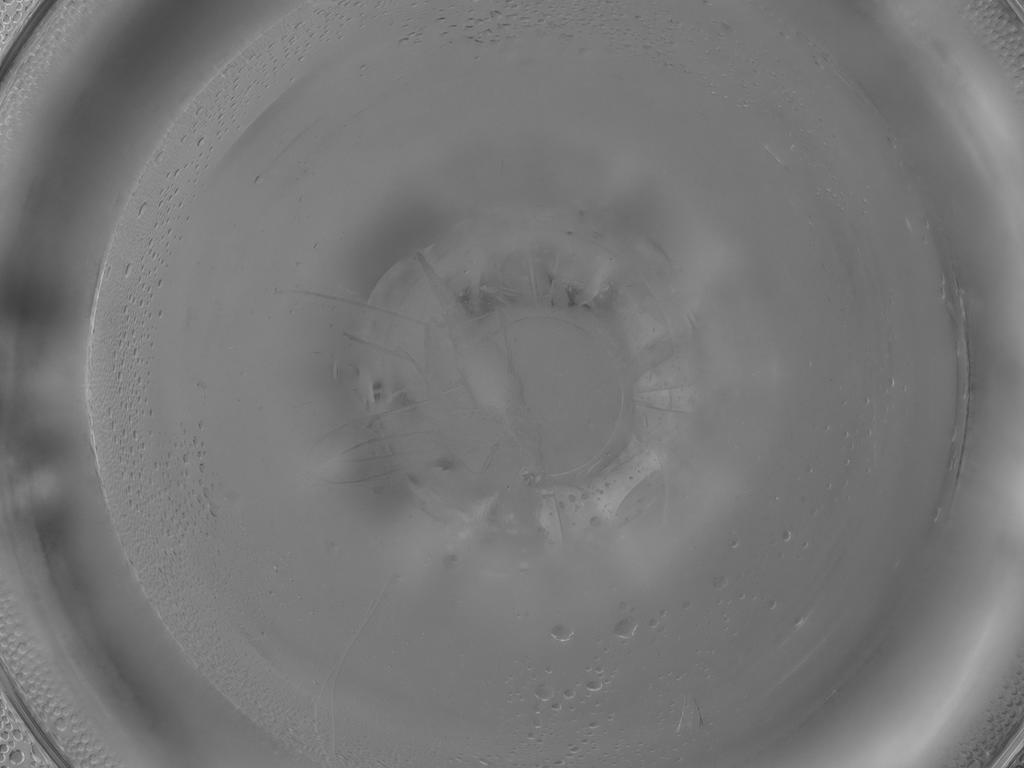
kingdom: Animalia
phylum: Arthropoda
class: Insecta
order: Diptera
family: Cecidomyiidae
